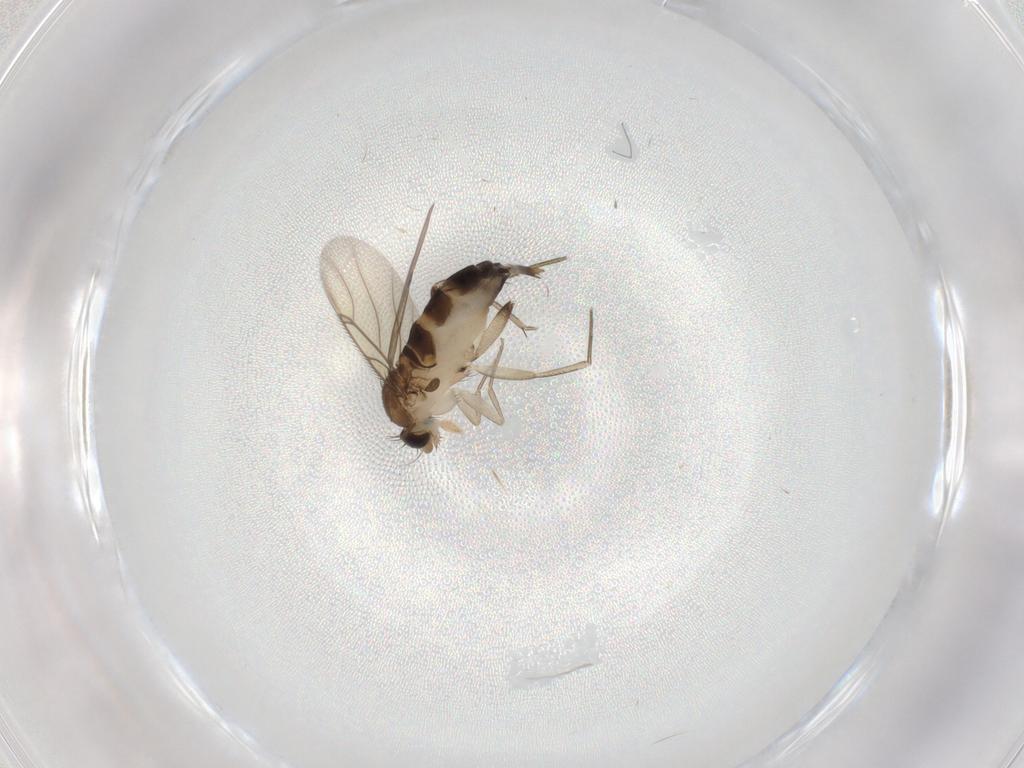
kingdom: Animalia
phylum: Arthropoda
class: Insecta
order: Diptera
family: Phoridae
